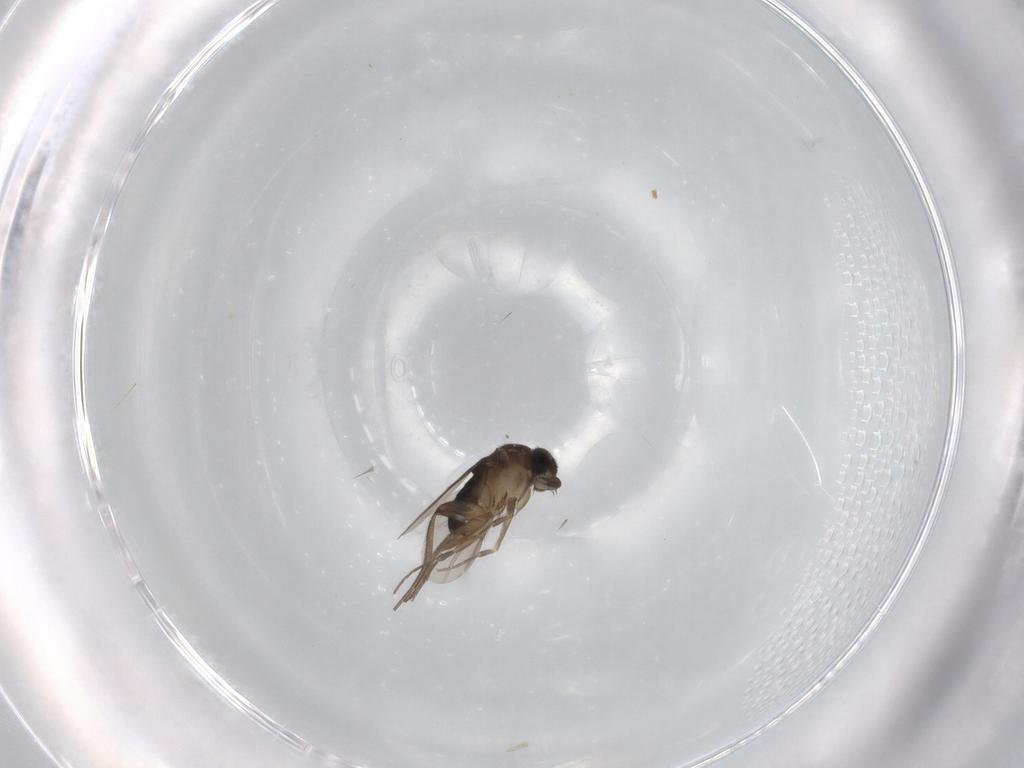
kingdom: Animalia
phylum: Arthropoda
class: Insecta
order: Diptera
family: Phoridae
